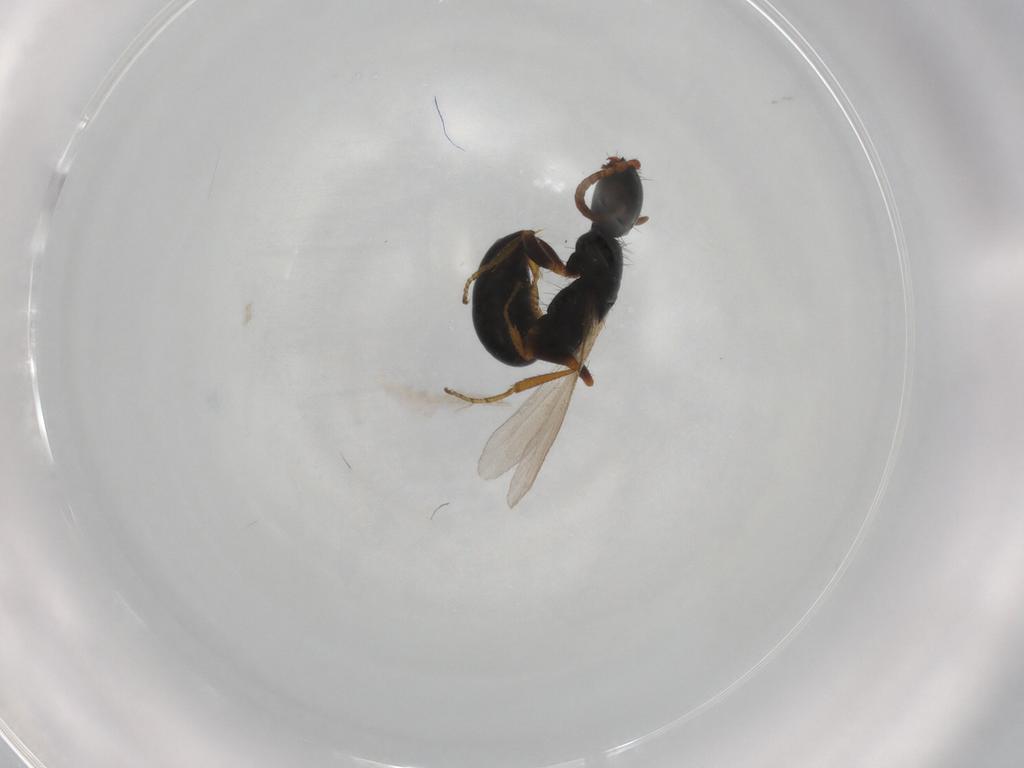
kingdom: Animalia
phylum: Arthropoda
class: Insecta
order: Hymenoptera
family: Bethylidae
